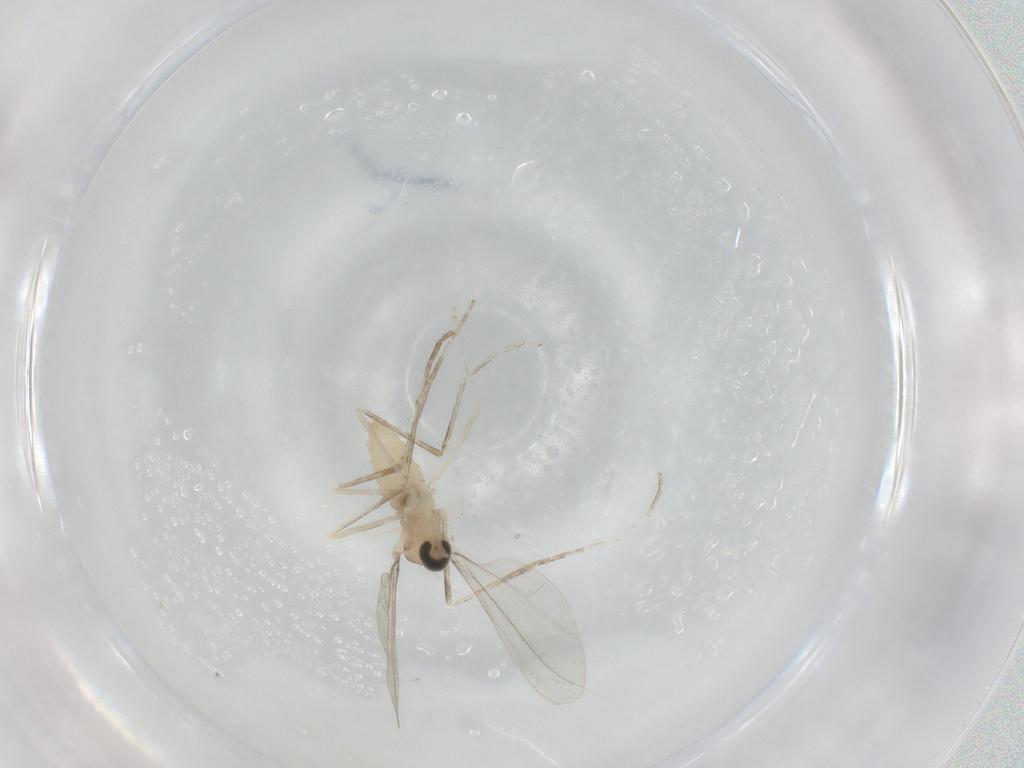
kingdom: Animalia
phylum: Arthropoda
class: Insecta
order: Diptera
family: Cecidomyiidae
